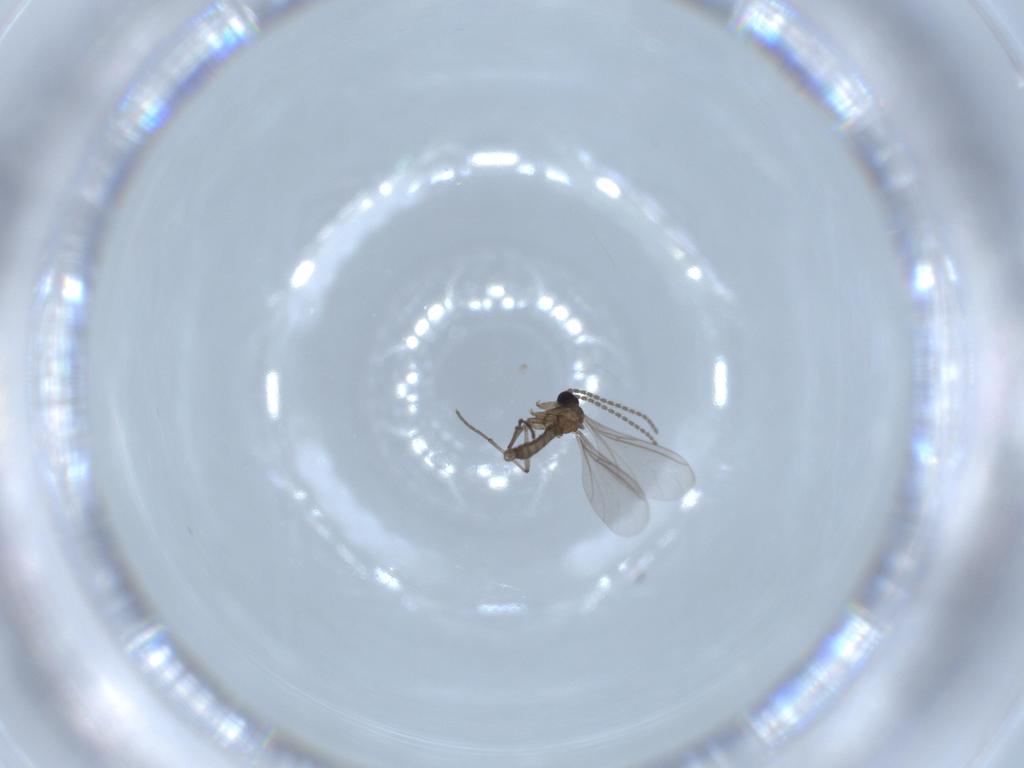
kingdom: Animalia
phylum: Arthropoda
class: Insecta
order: Diptera
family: Sciaridae
